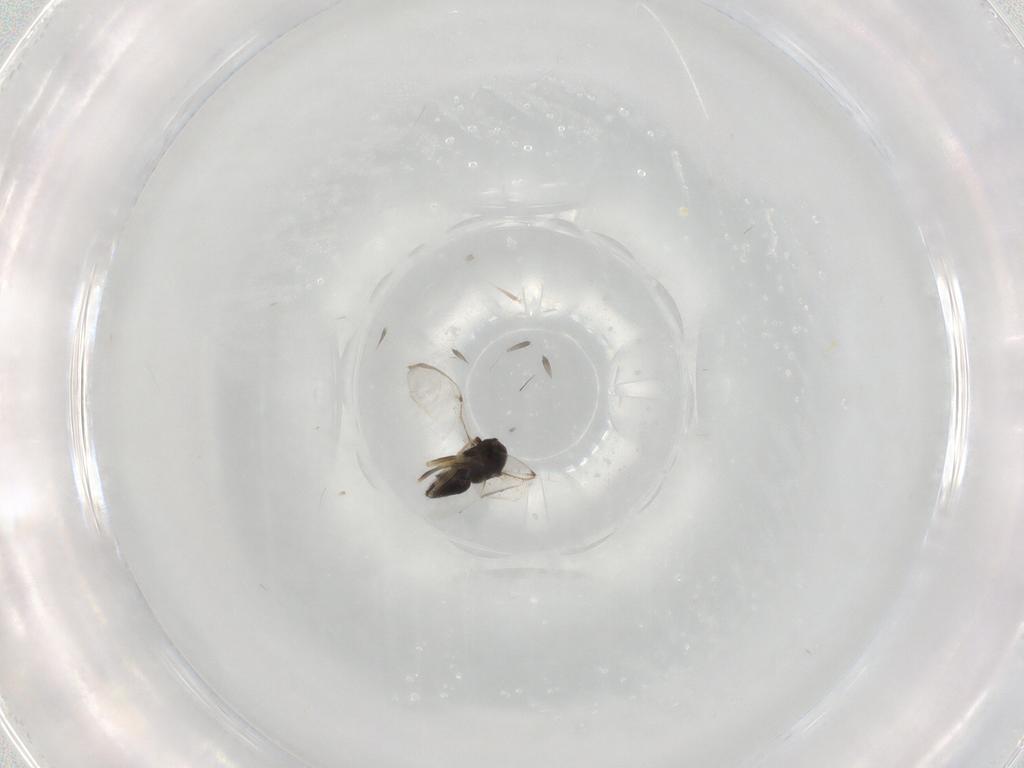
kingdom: Animalia
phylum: Arthropoda
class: Insecta
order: Hymenoptera
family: Encyrtidae
